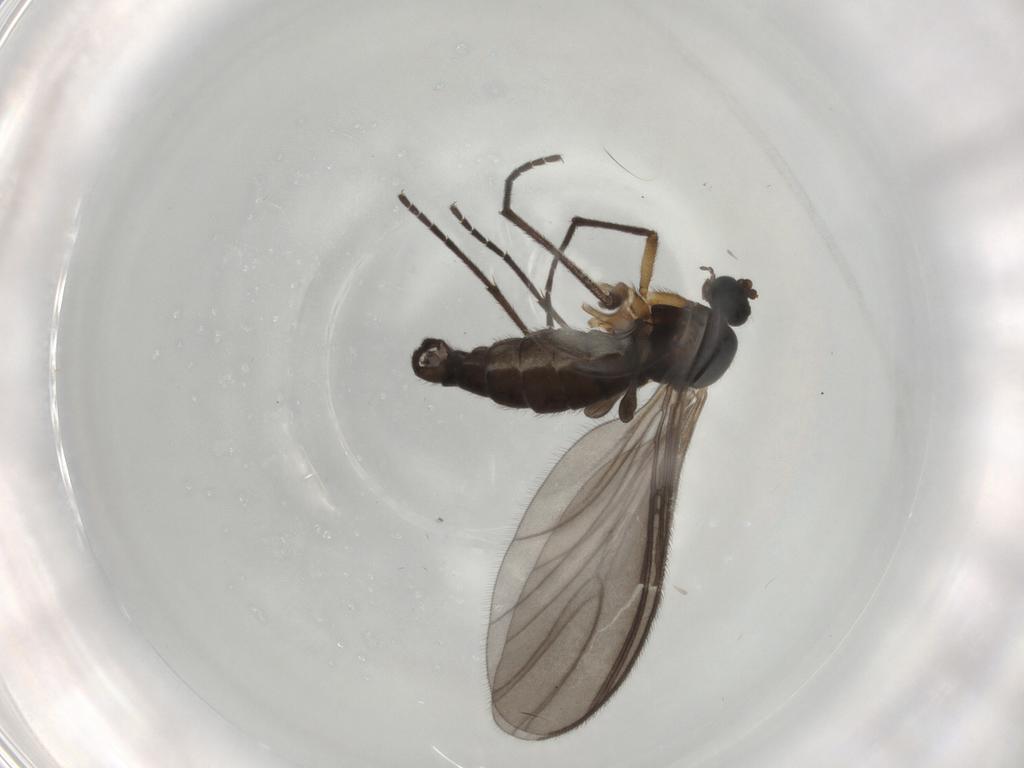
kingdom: Animalia
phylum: Arthropoda
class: Insecta
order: Diptera
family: Sciaridae
